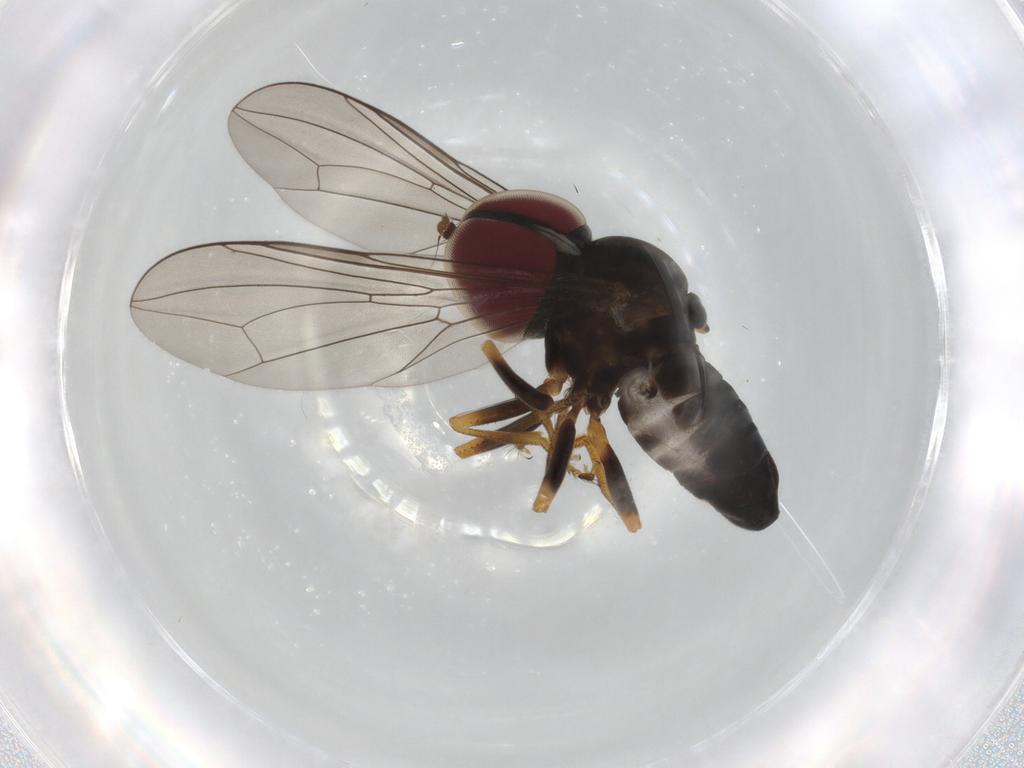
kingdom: Animalia
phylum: Arthropoda
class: Insecta
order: Diptera
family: Pipunculidae
